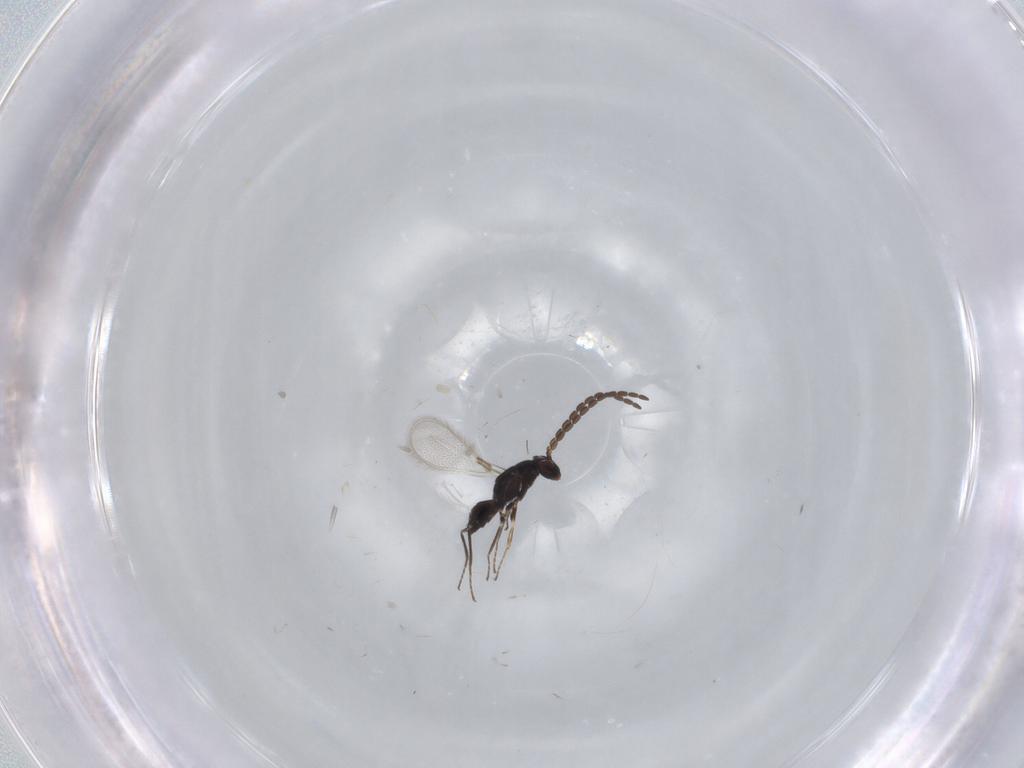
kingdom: Animalia
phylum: Arthropoda
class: Insecta
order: Hymenoptera
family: Mymaridae
